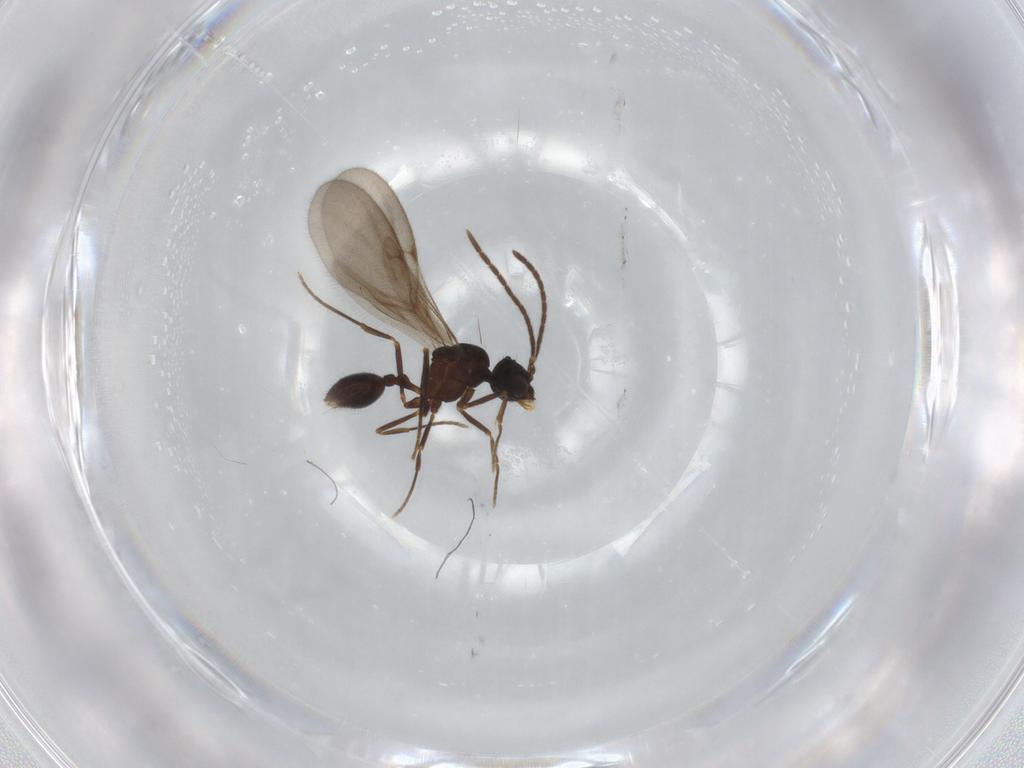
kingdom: Animalia
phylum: Arthropoda
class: Insecta
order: Hymenoptera
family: Formicidae
